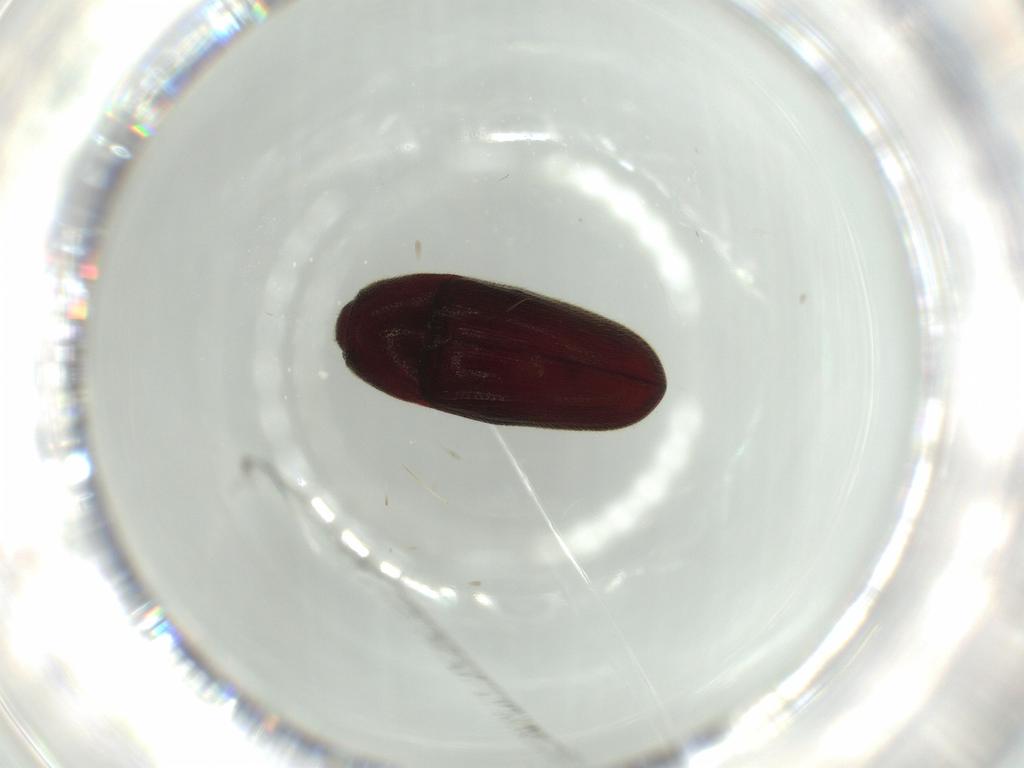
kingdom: Animalia
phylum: Arthropoda
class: Insecta
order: Coleoptera
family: Throscidae
